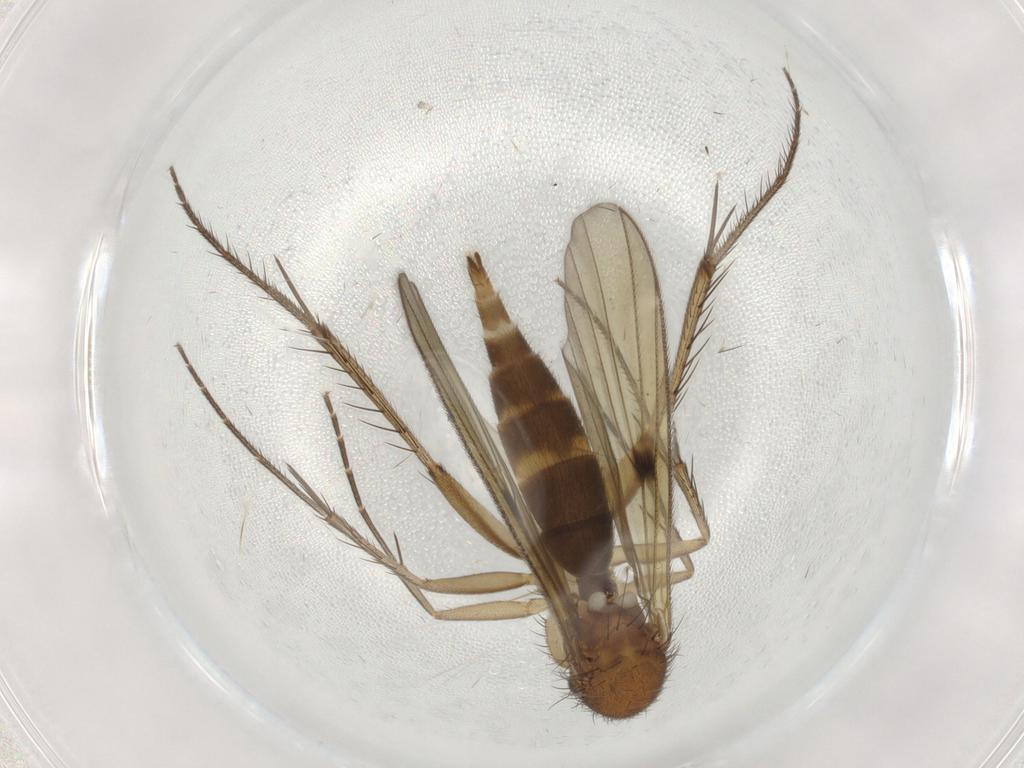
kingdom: Animalia
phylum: Arthropoda
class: Insecta
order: Diptera
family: Mycetophilidae
